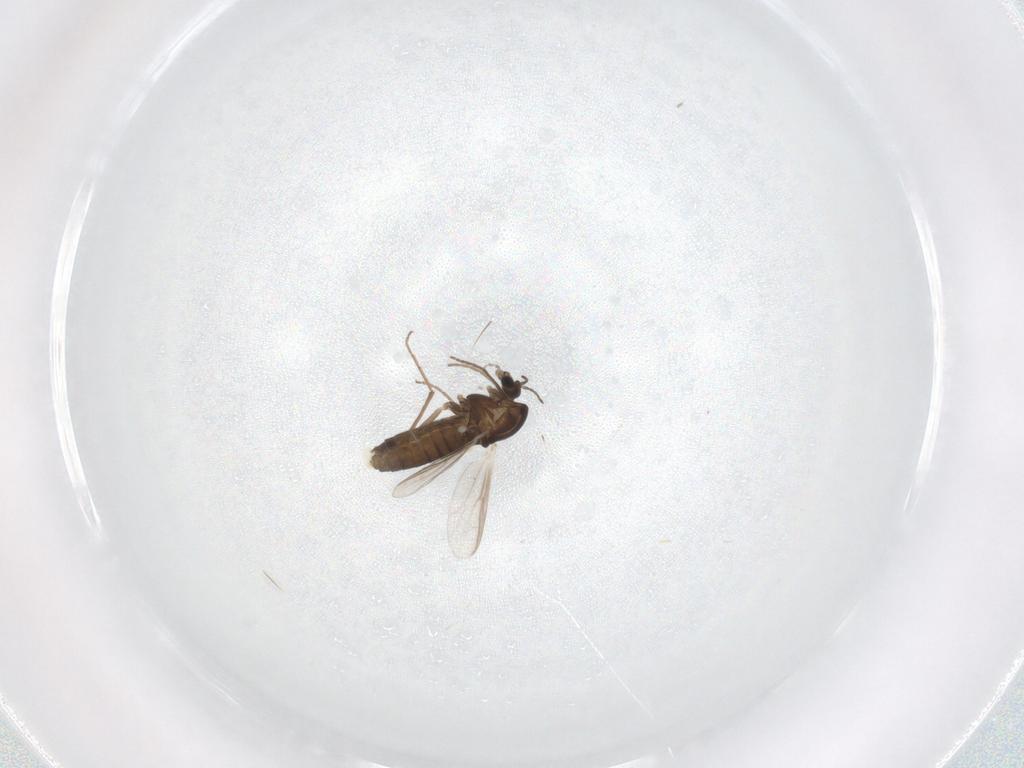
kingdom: Animalia
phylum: Arthropoda
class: Insecta
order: Diptera
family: Chironomidae
